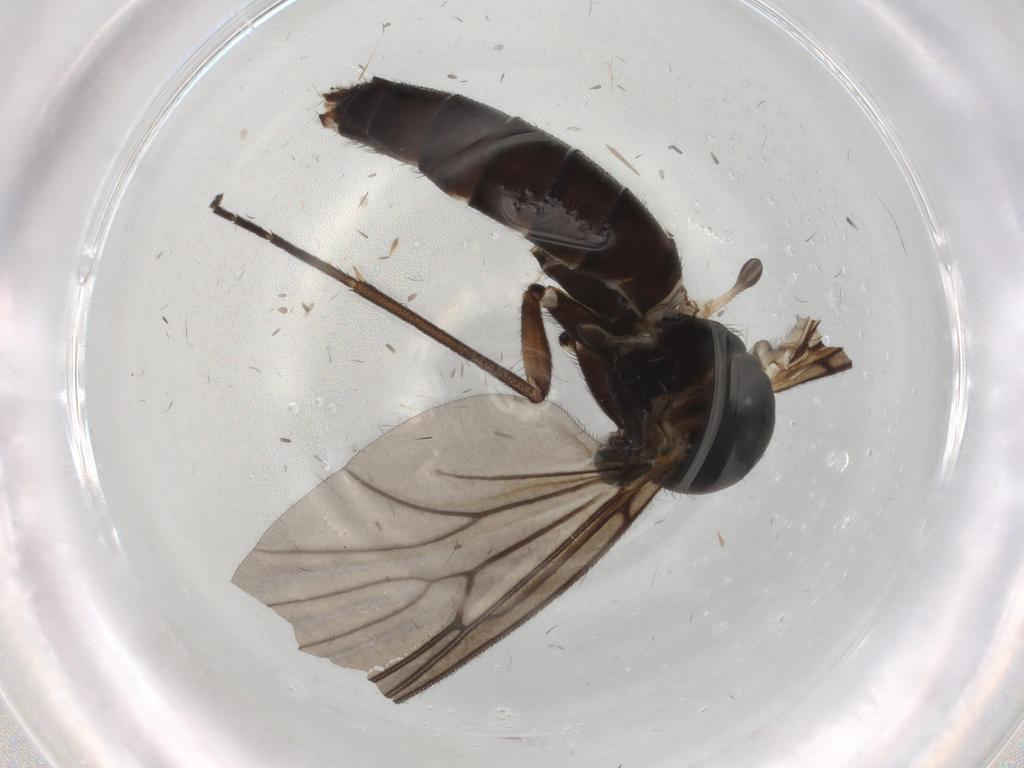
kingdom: Animalia
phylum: Arthropoda
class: Insecta
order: Diptera
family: Mycetophilidae
